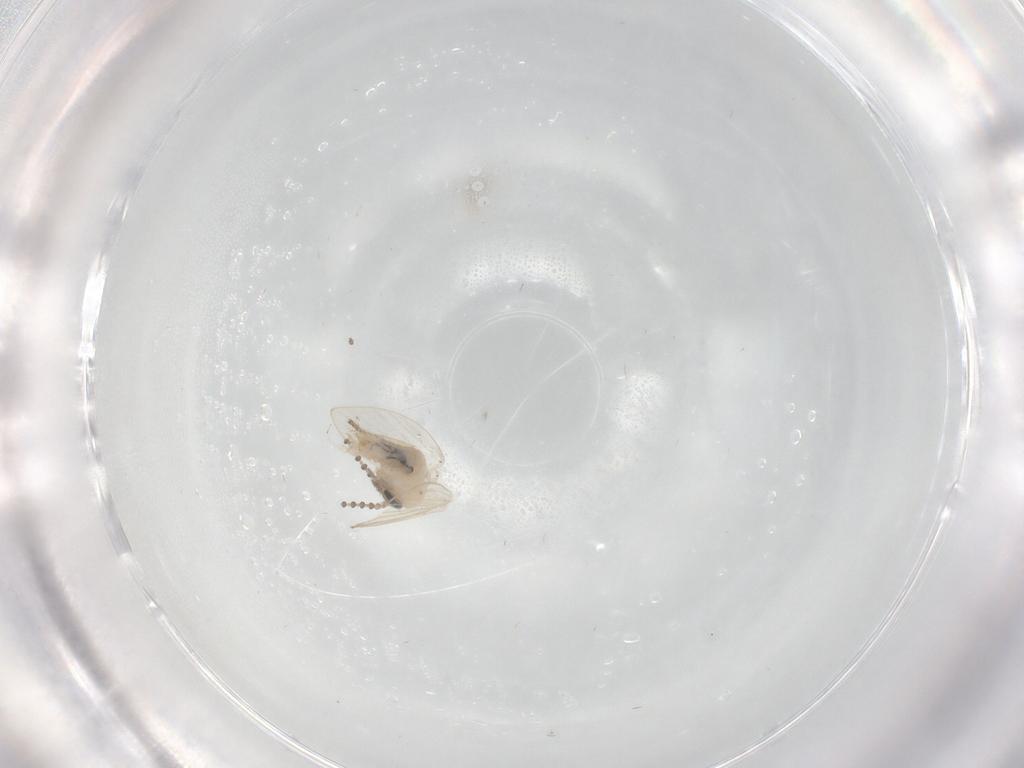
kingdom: Animalia
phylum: Arthropoda
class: Insecta
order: Diptera
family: Psychodidae
